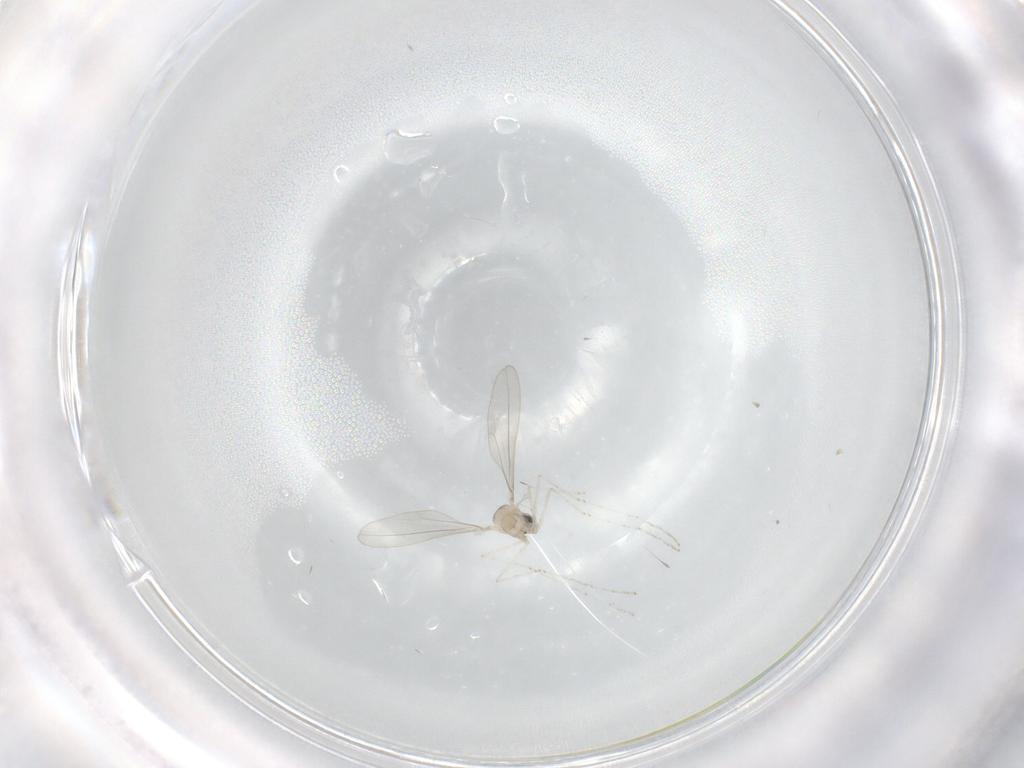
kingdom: Animalia
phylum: Arthropoda
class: Insecta
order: Diptera
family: Cecidomyiidae
